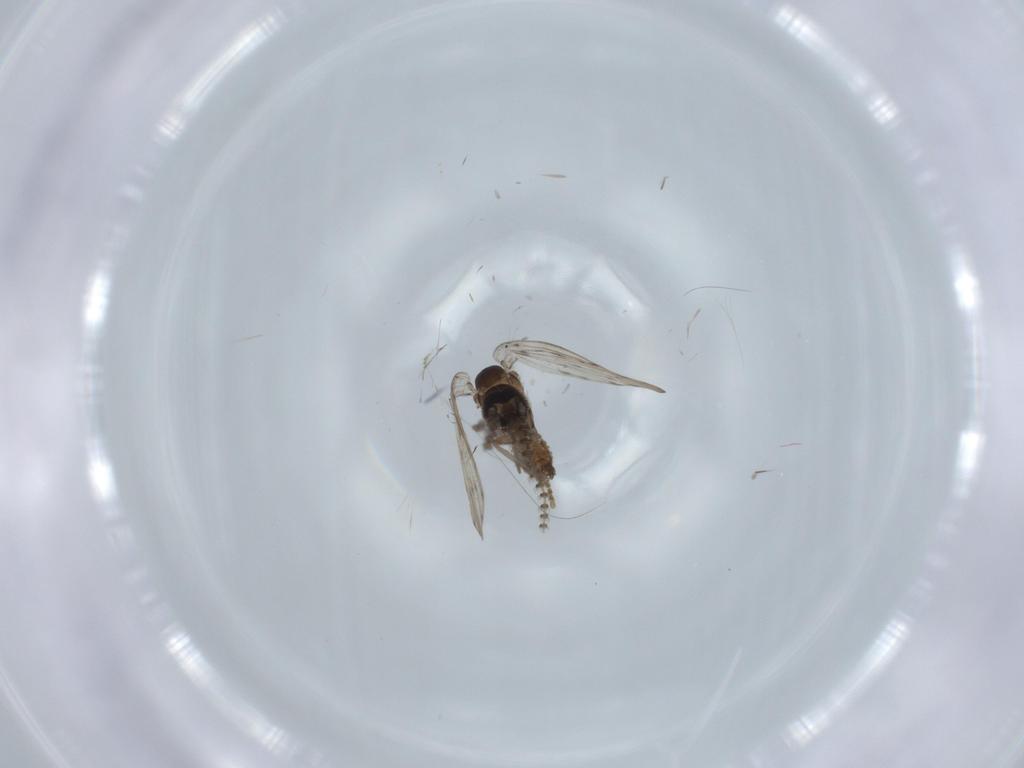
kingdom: Animalia
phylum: Arthropoda
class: Insecta
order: Diptera
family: Psychodidae
